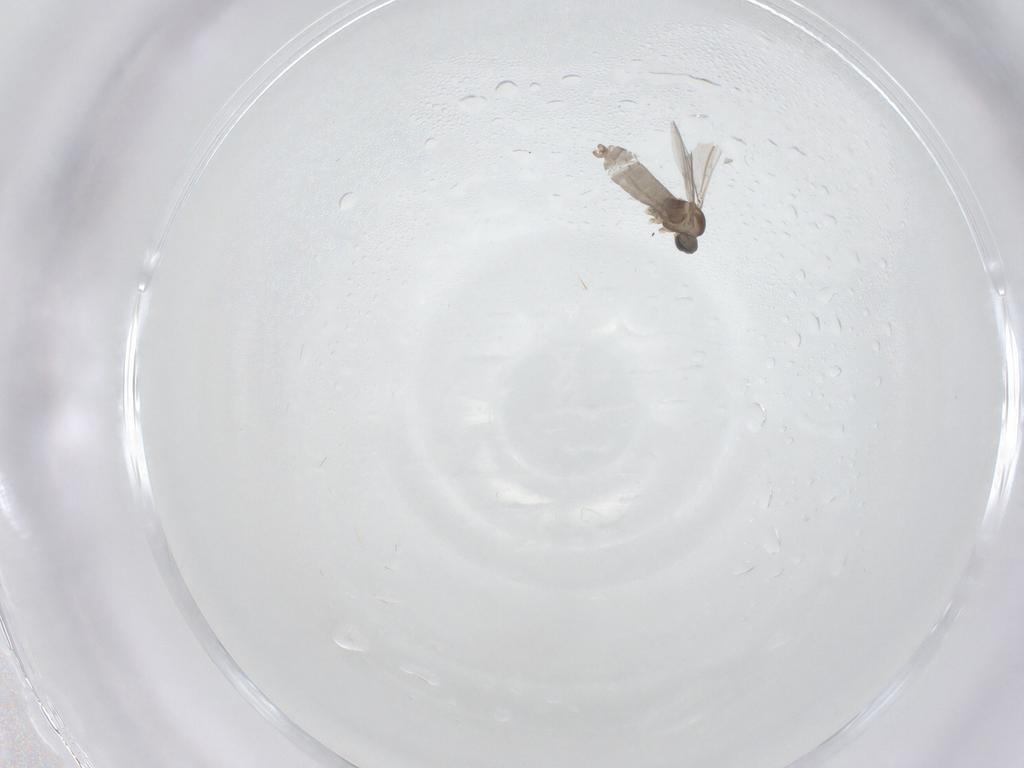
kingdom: Animalia
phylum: Arthropoda
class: Insecta
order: Diptera
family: Cecidomyiidae
